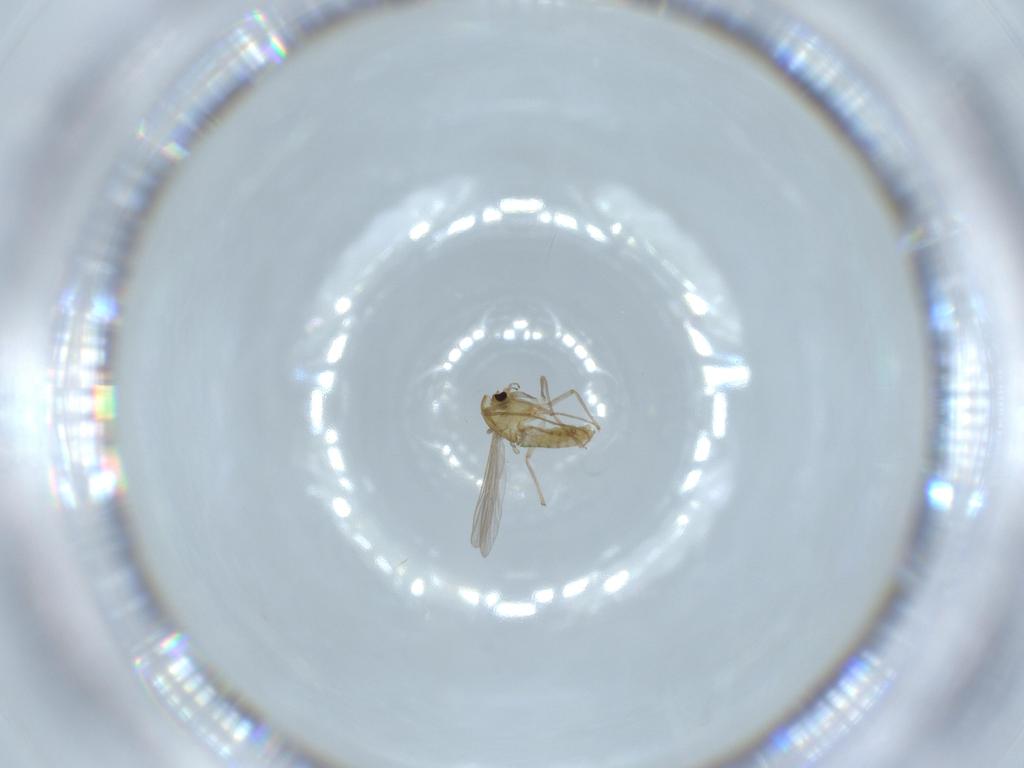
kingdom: Animalia
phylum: Arthropoda
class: Insecta
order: Diptera
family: Chironomidae
